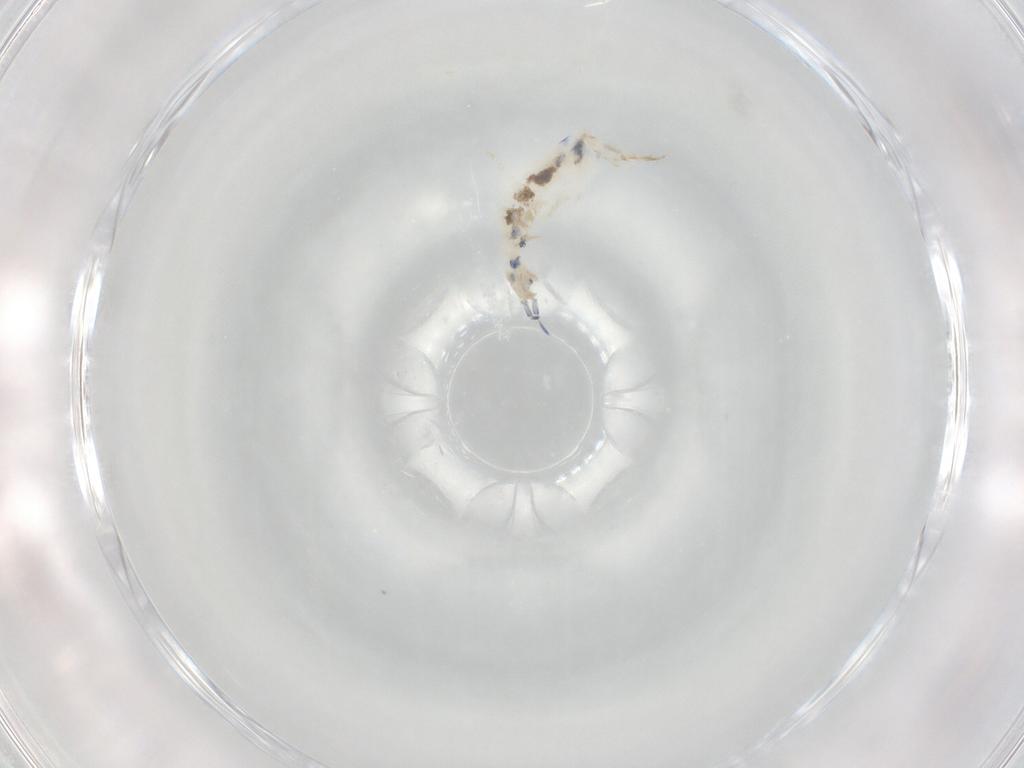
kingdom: Animalia
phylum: Arthropoda
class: Collembola
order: Entomobryomorpha
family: Entomobryidae
